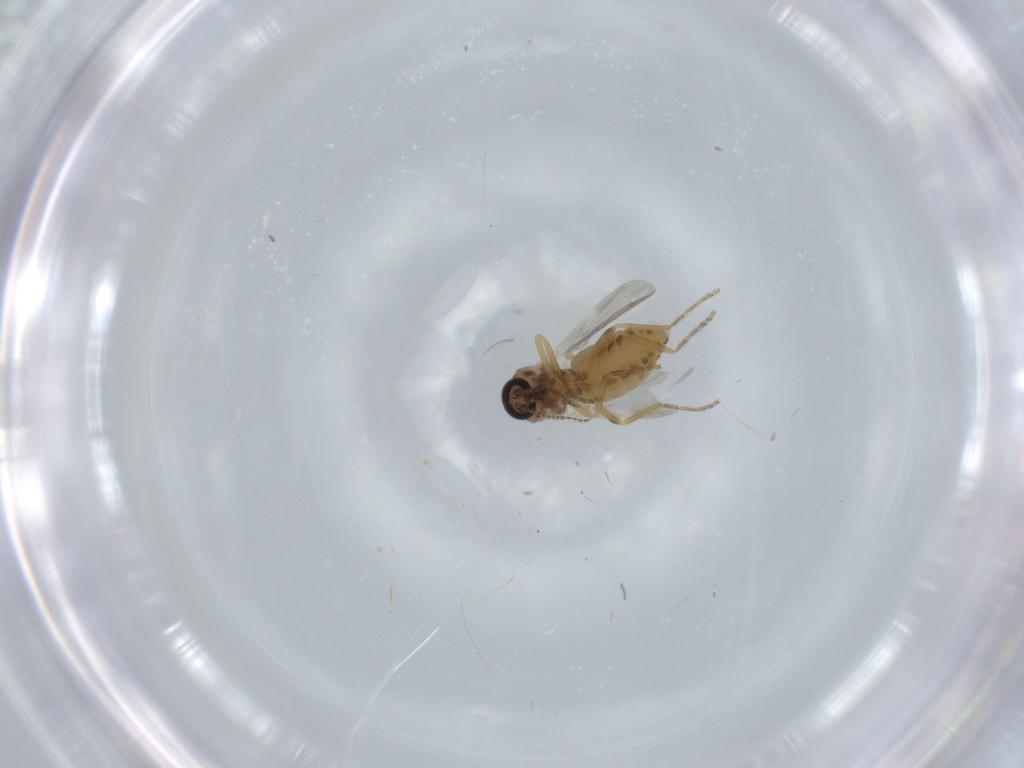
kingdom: Animalia
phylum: Arthropoda
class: Insecta
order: Diptera
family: Ceratopogonidae
